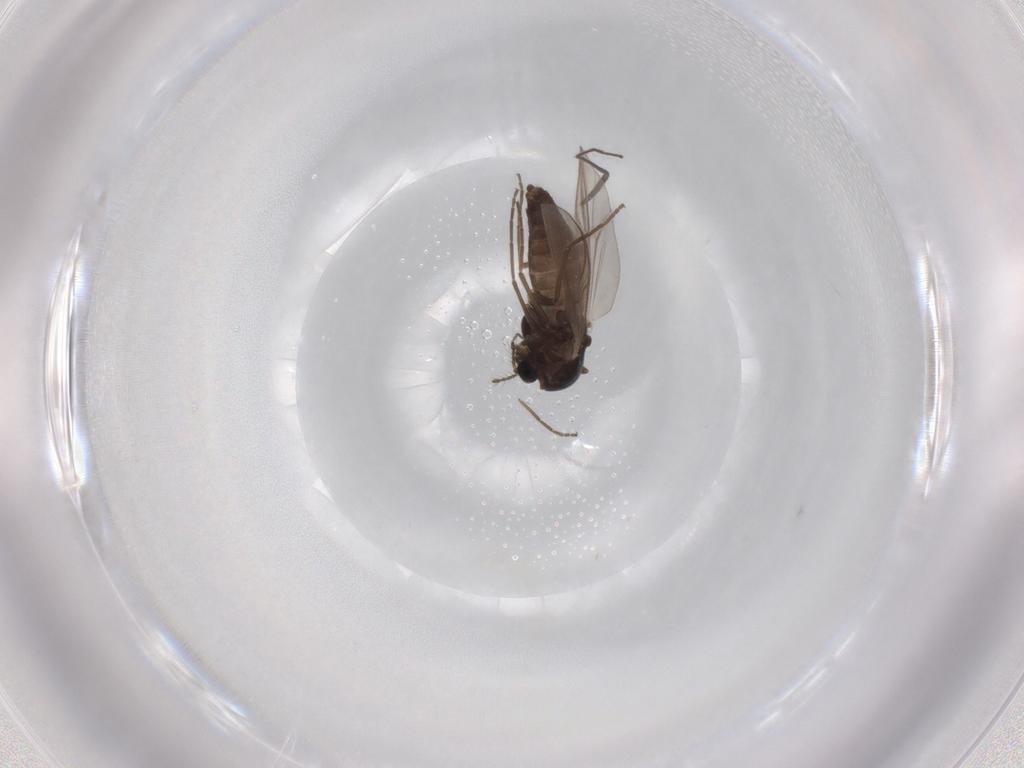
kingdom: Animalia
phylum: Arthropoda
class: Insecta
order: Diptera
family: Chironomidae
